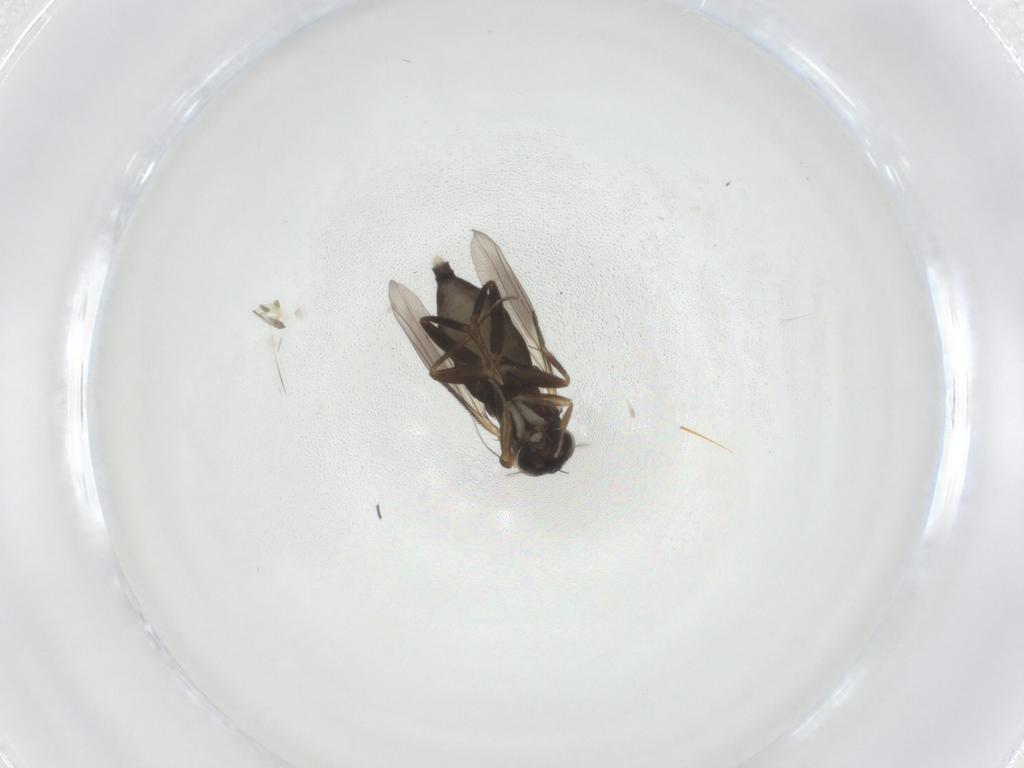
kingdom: Animalia
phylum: Arthropoda
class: Insecta
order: Diptera
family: Phoridae
